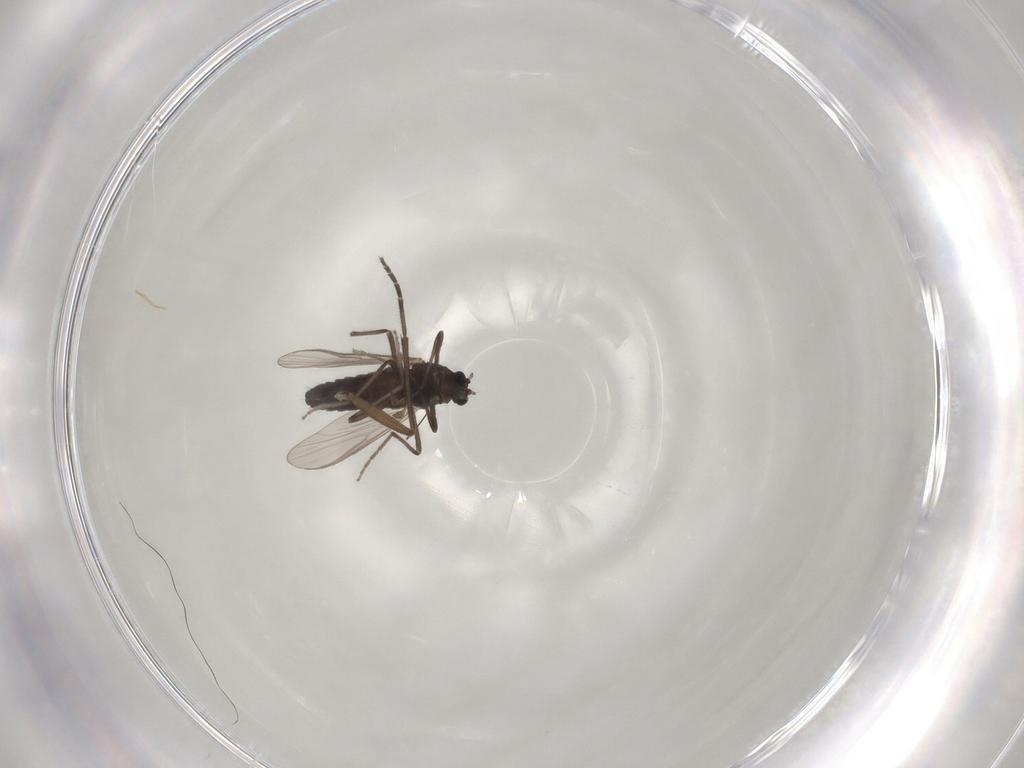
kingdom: Animalia
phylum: Arthropoda
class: Insecta
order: Diptera
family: Chironomidae
